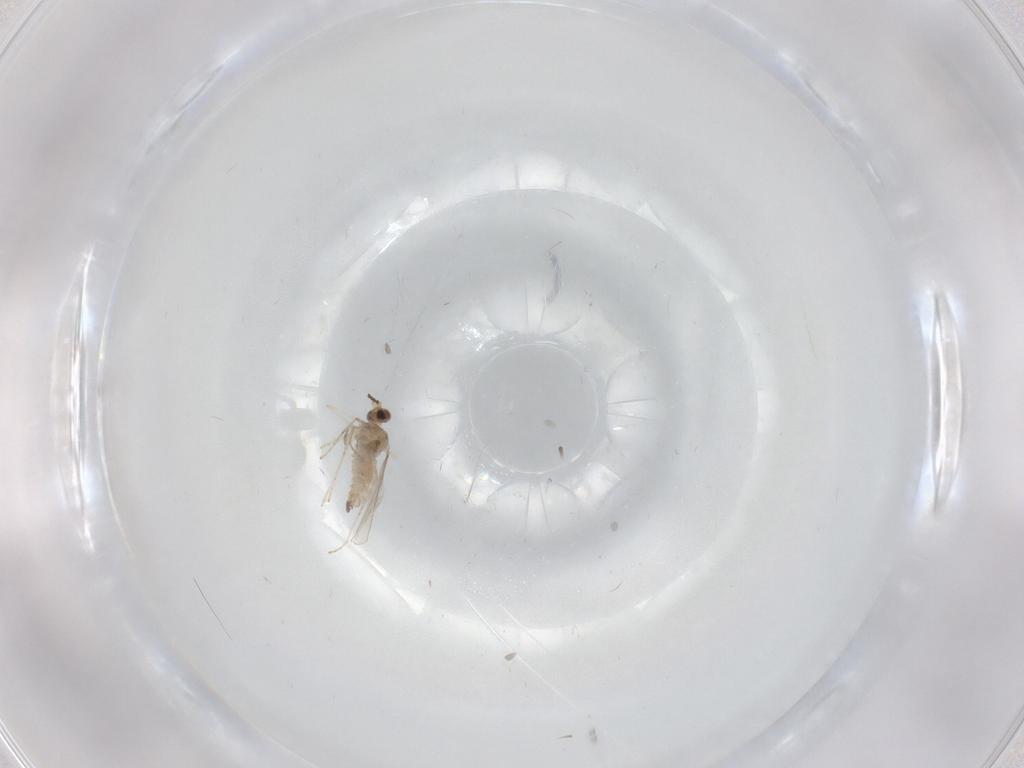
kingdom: Animalia
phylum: Arthropoda
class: Insecta
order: Diptera
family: Cecidomyiidae
